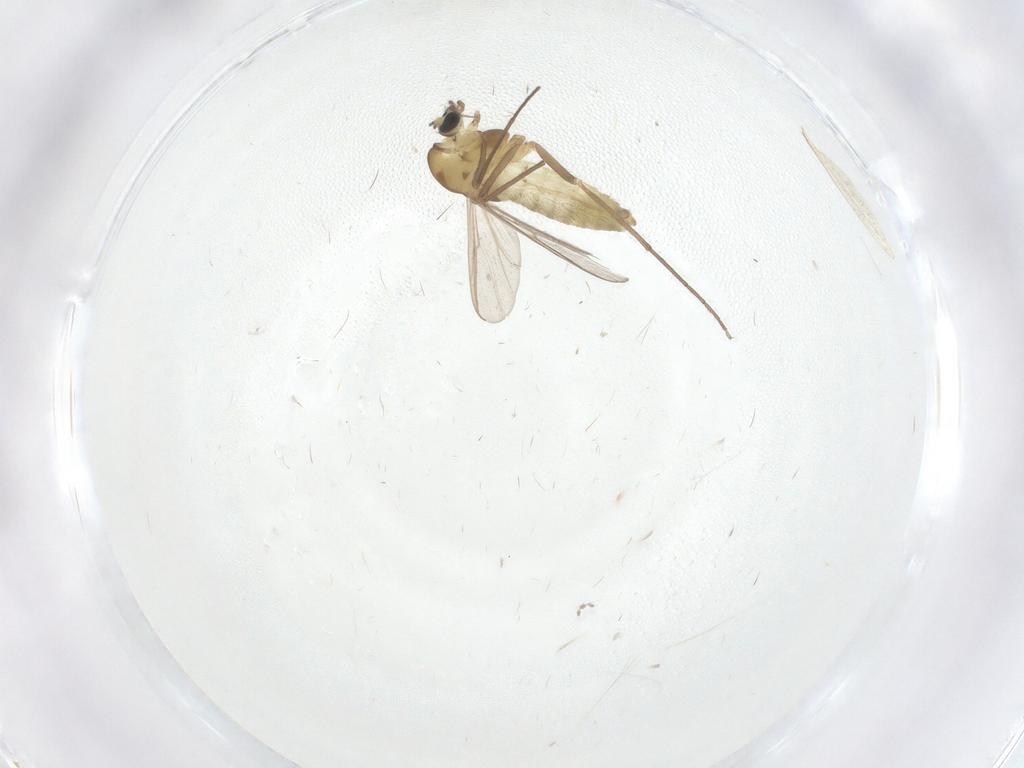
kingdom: Animalia
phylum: Arthropoda
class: Insecta
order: Diptera
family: Chironomidae
